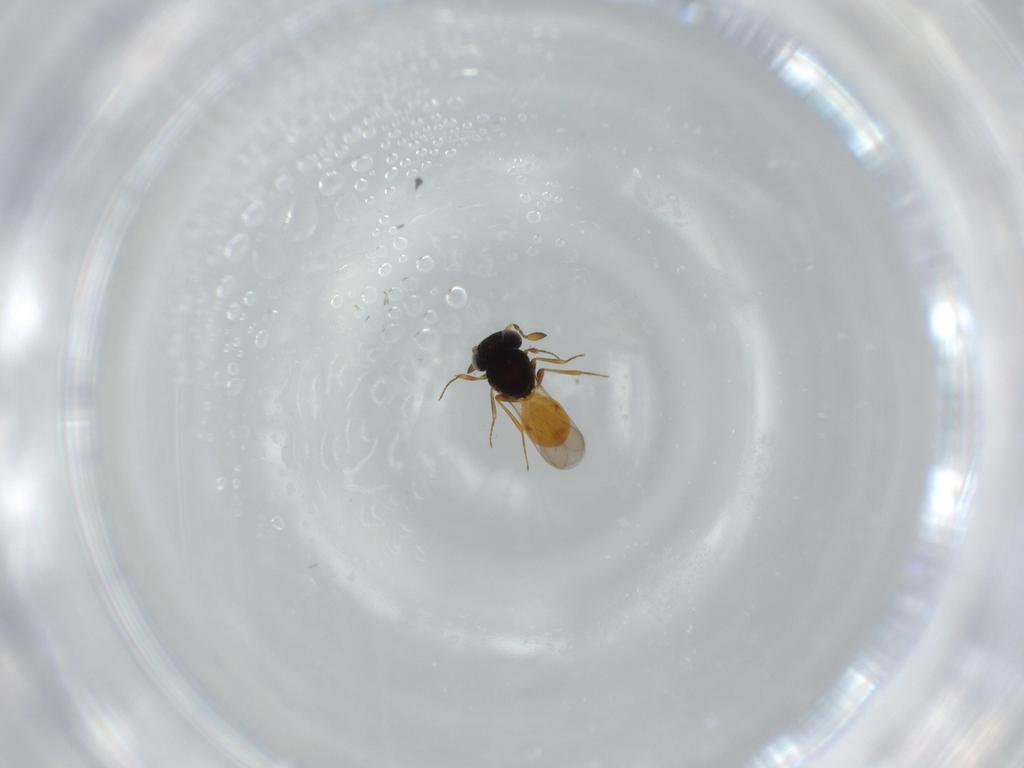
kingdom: Animalia
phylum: Arthropoda
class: Insecta
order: Hymenoptera
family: Scelionidae
